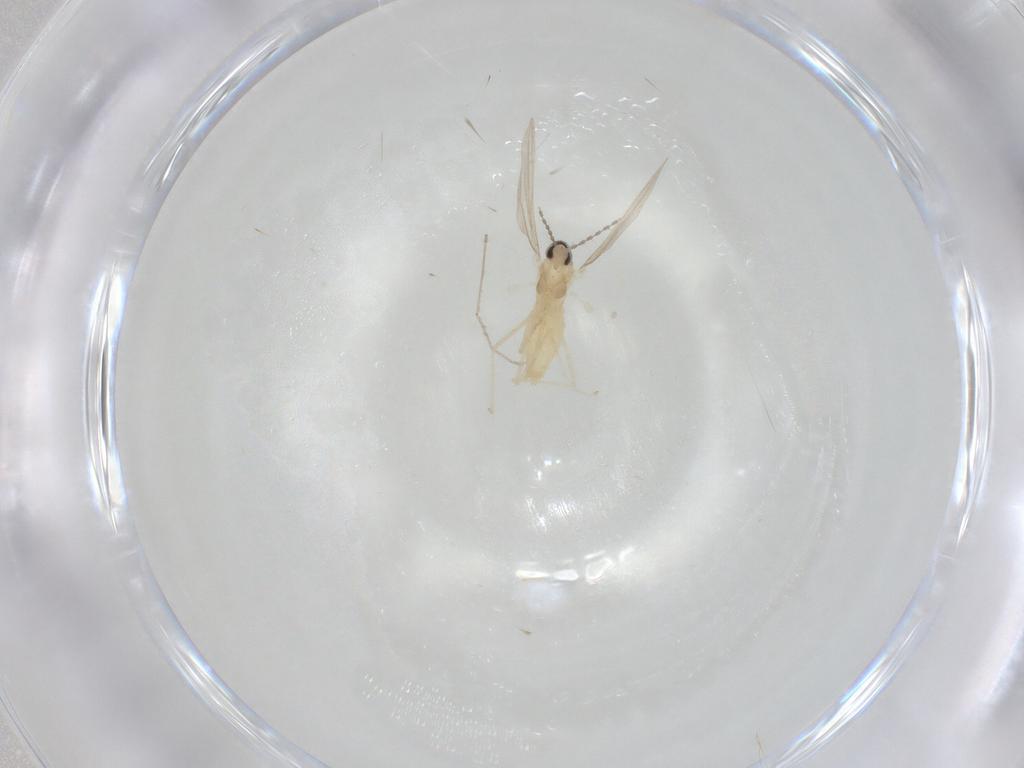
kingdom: Animalia
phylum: Arthropoda
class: Insecta
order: Diptera
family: Cecidomyiidae
